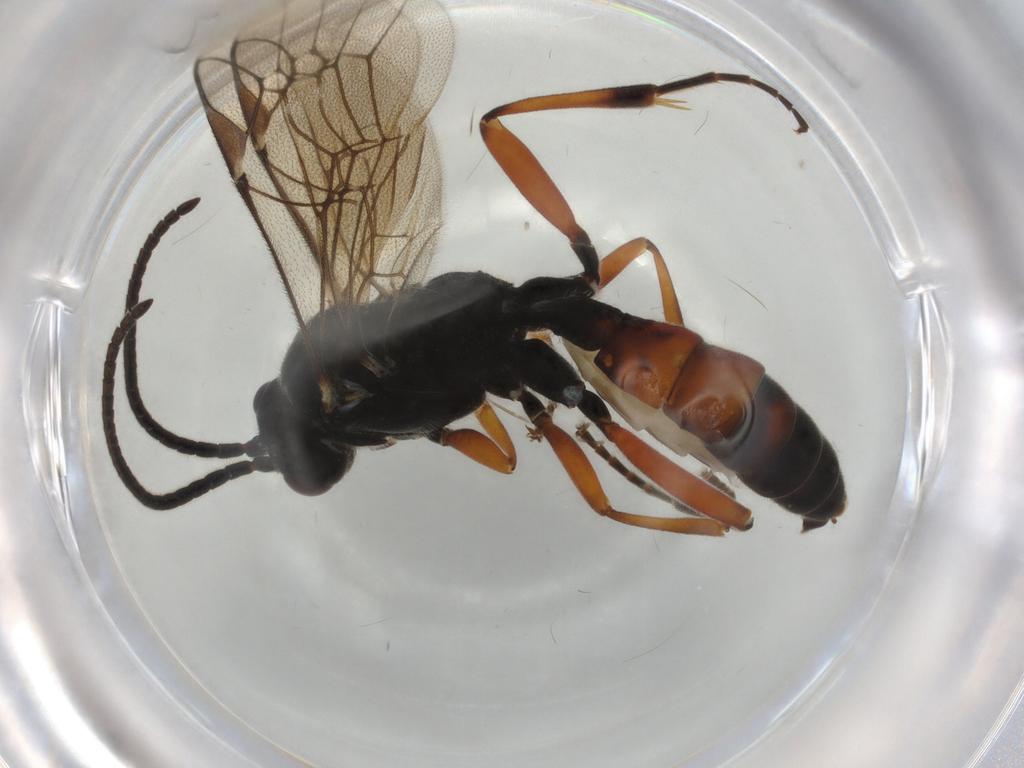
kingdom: Animalia
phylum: Arthropoda
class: Insecta
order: Hymenoptera
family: Ichneumonidae
